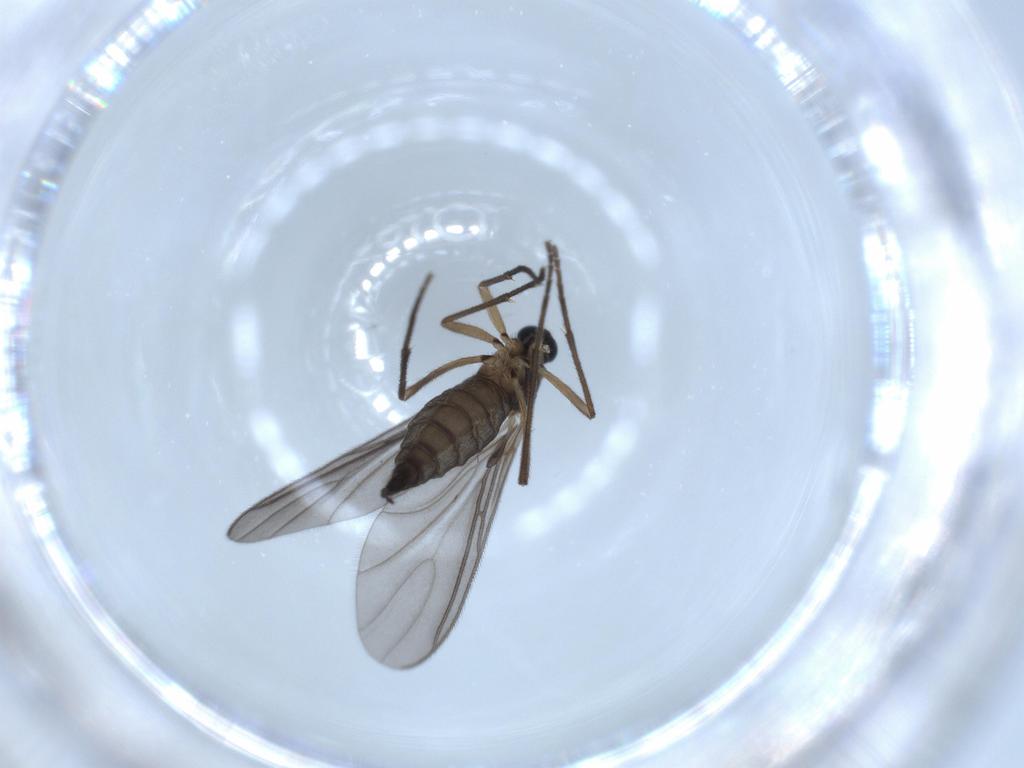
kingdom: Animalia
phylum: Arthropoda
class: Insecta
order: Diptera
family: Sciaridae
